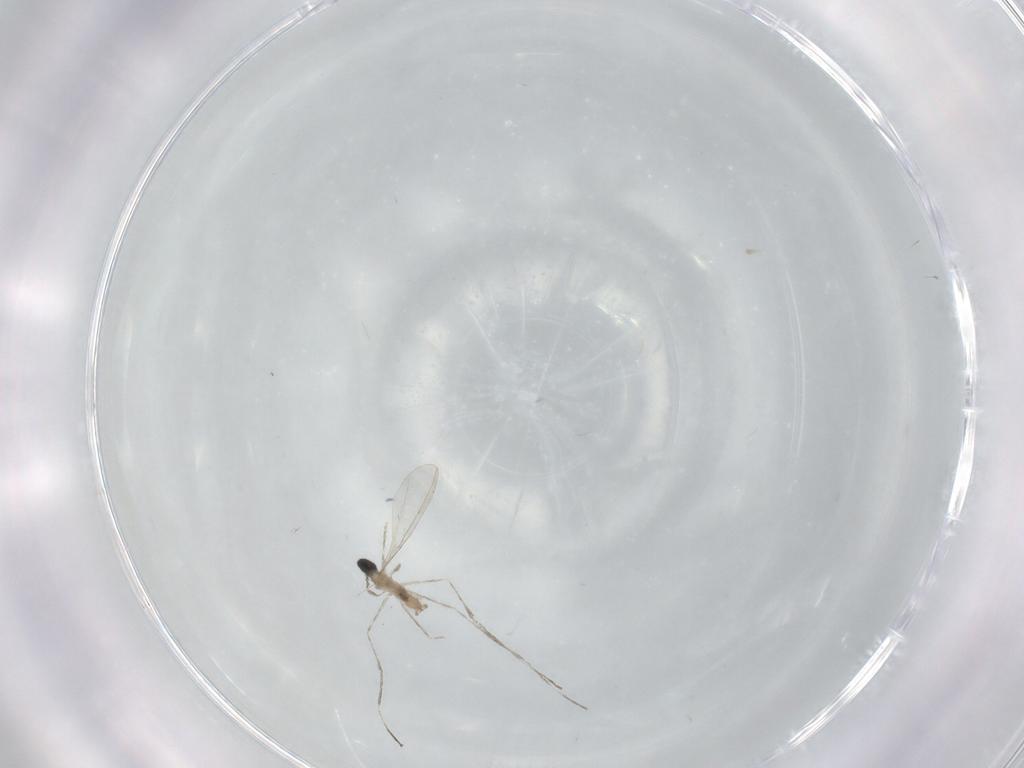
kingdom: Animalia
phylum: Arthropoda
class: Insecta
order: Diptera
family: Cecidomyiidae
